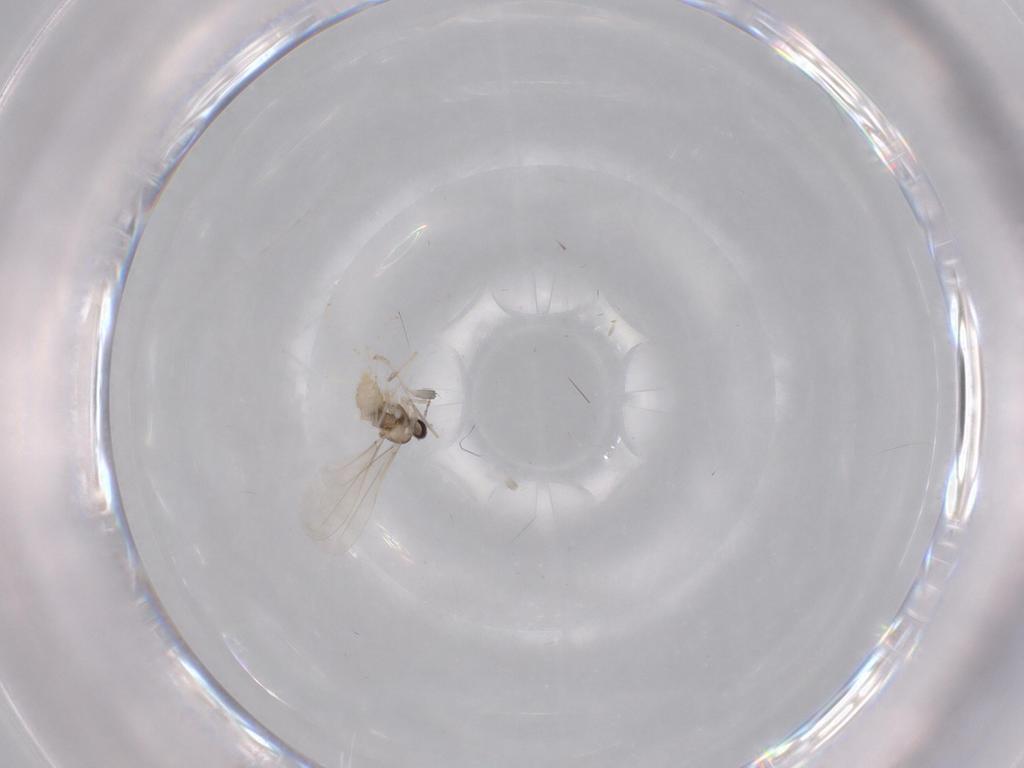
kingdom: Animalia
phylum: Arthropoda
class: Insecta
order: Diptera
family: Cecidomyiidae
